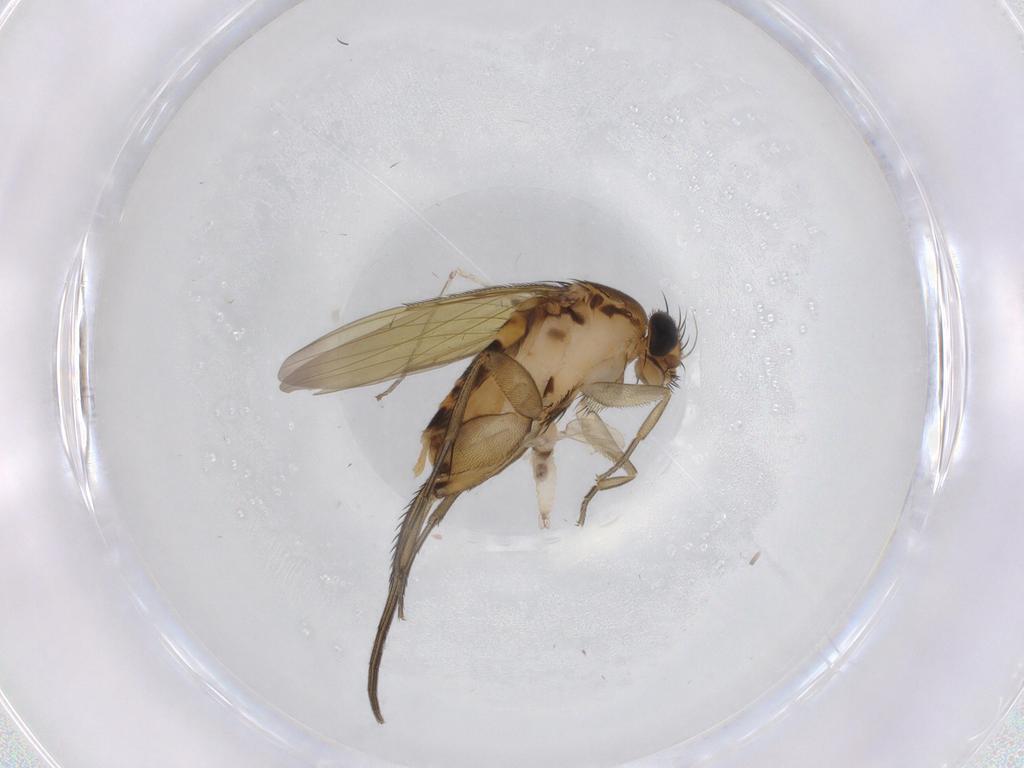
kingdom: Animalia
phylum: Arthropoda
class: Insecta
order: Diptera
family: Cecidomyiidae
